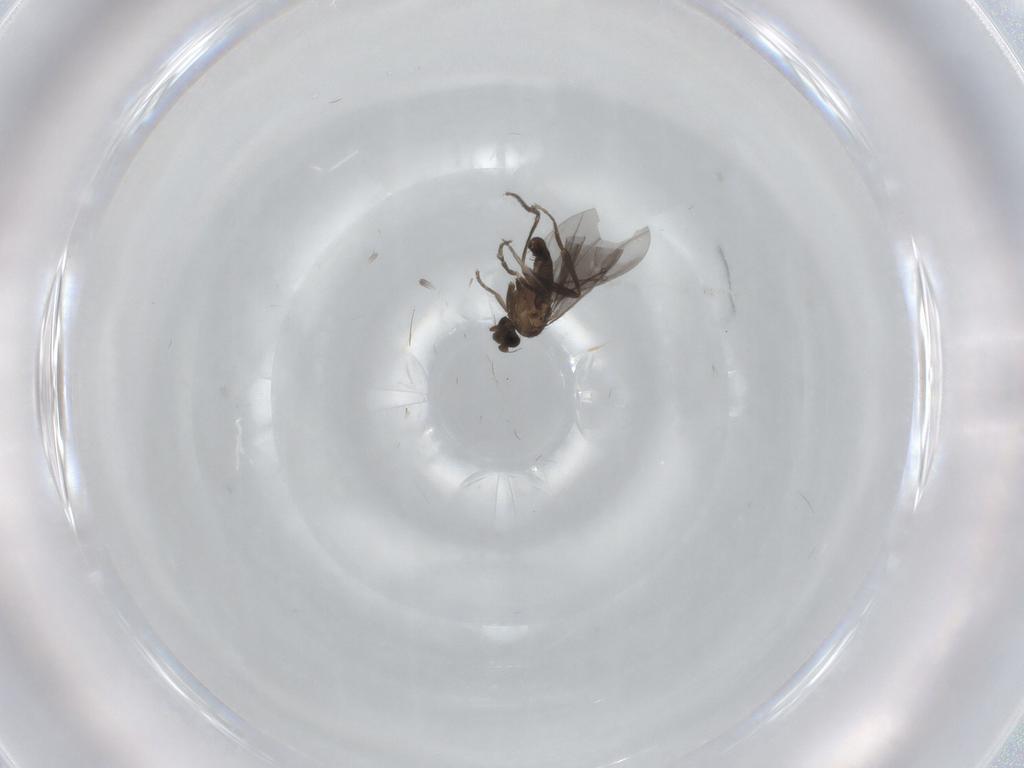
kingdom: Animalia
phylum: Arthropoda
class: Insecta
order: Diptera
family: Phoridae
